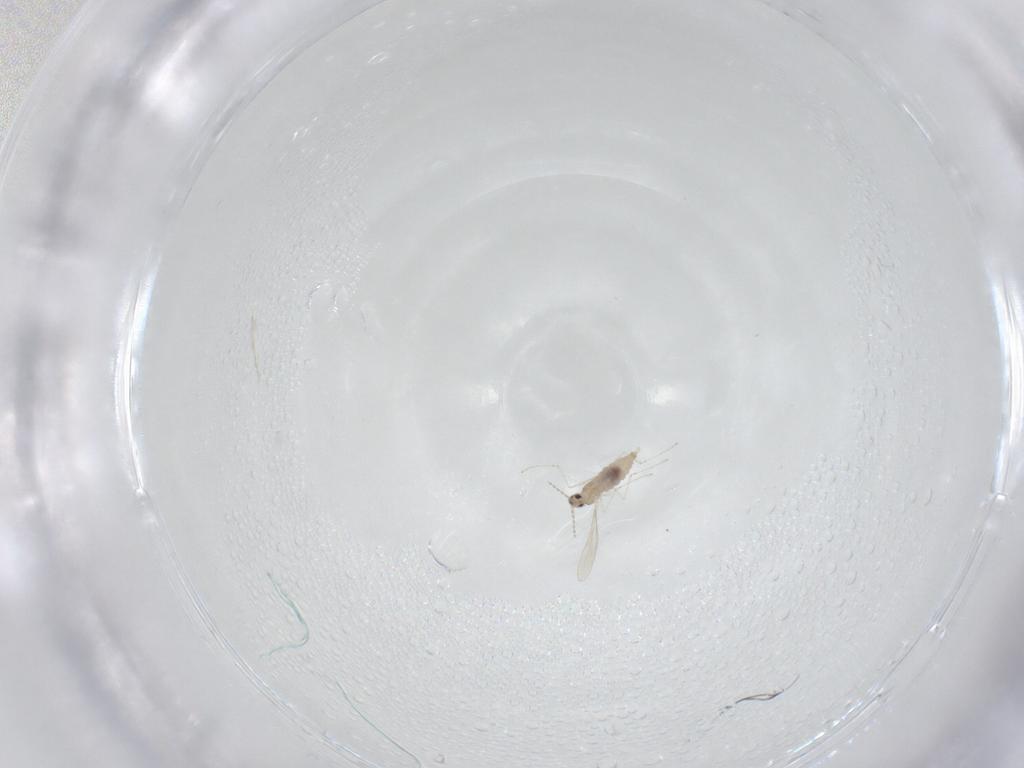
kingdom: Animalia
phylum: Arthropoda
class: Insecta
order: Diptera
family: Cecidomyiidae
